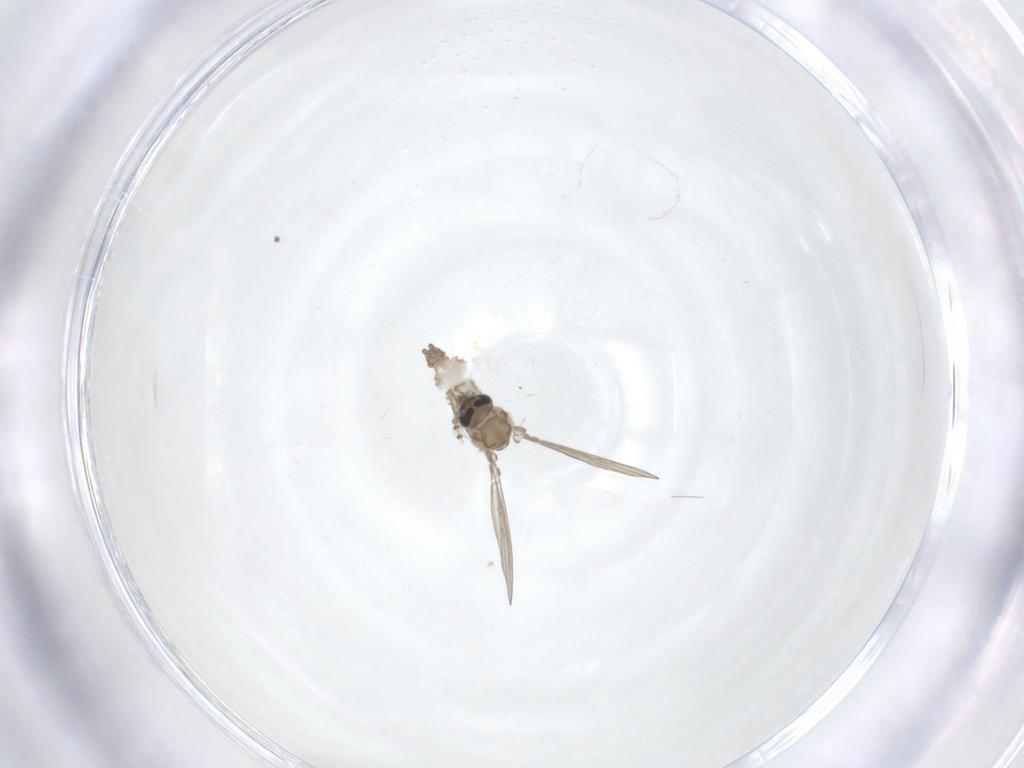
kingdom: Animalia
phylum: Arthropoda
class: Insecta
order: Diptera
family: Psychodidae
